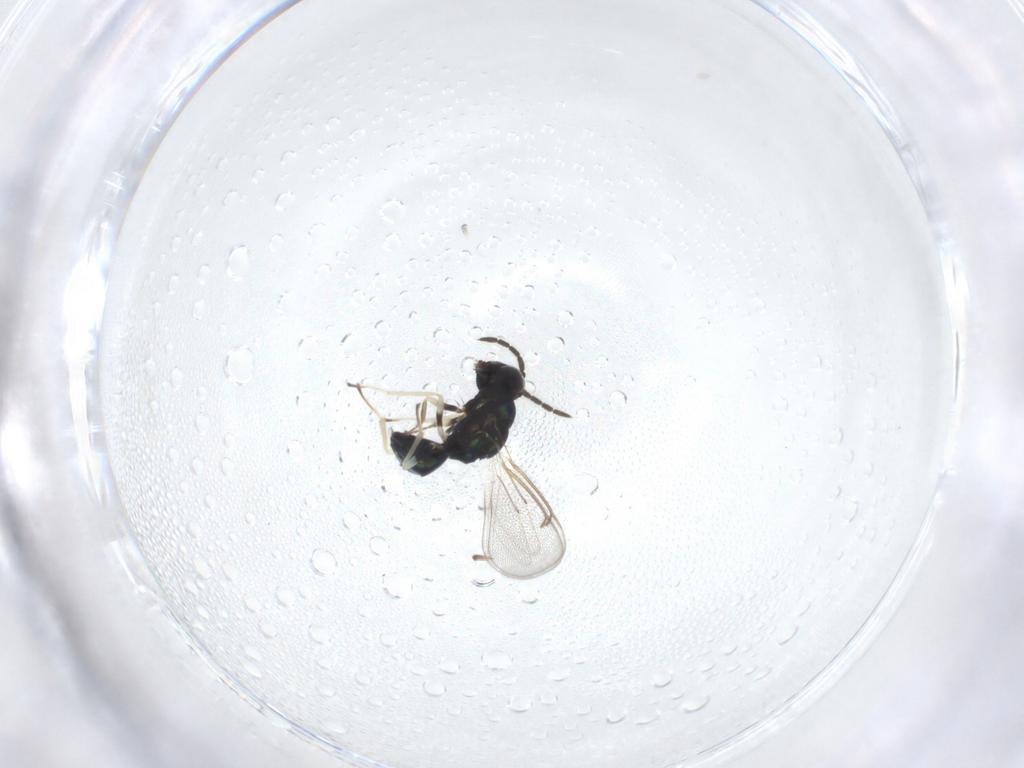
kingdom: Animalia
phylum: Arthropoda
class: Insecta
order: Hymenoptera
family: Eulophidae
